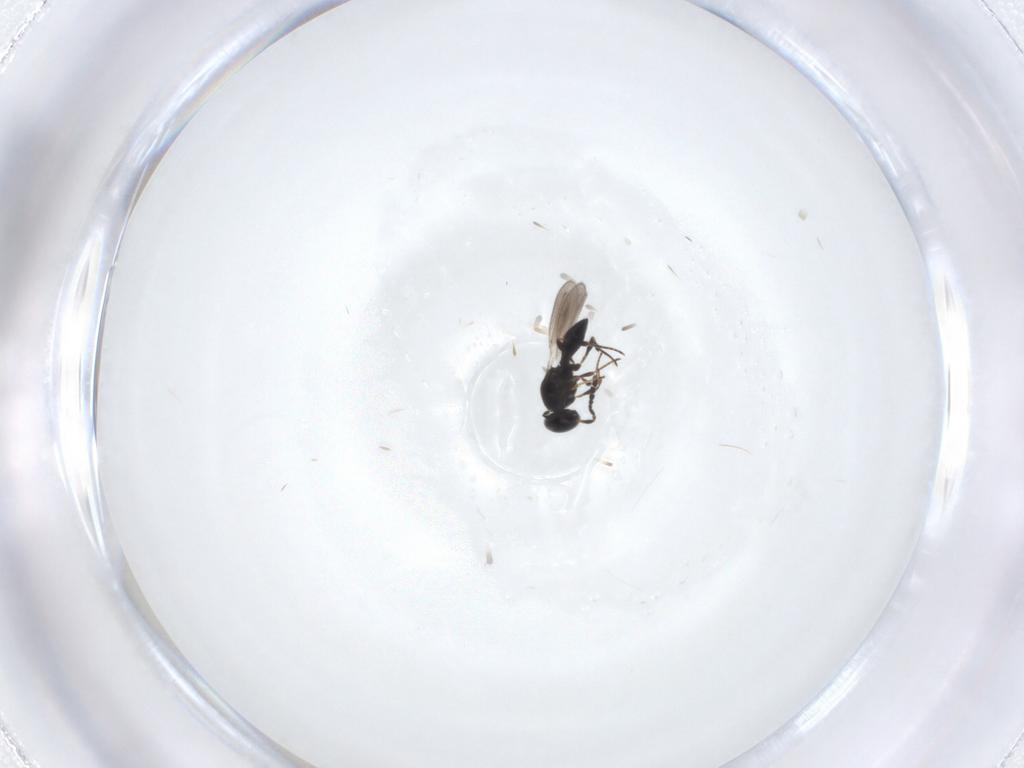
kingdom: Animalia
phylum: Arthropoda
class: Insecta
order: Hymenoptera
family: Platygastridae
